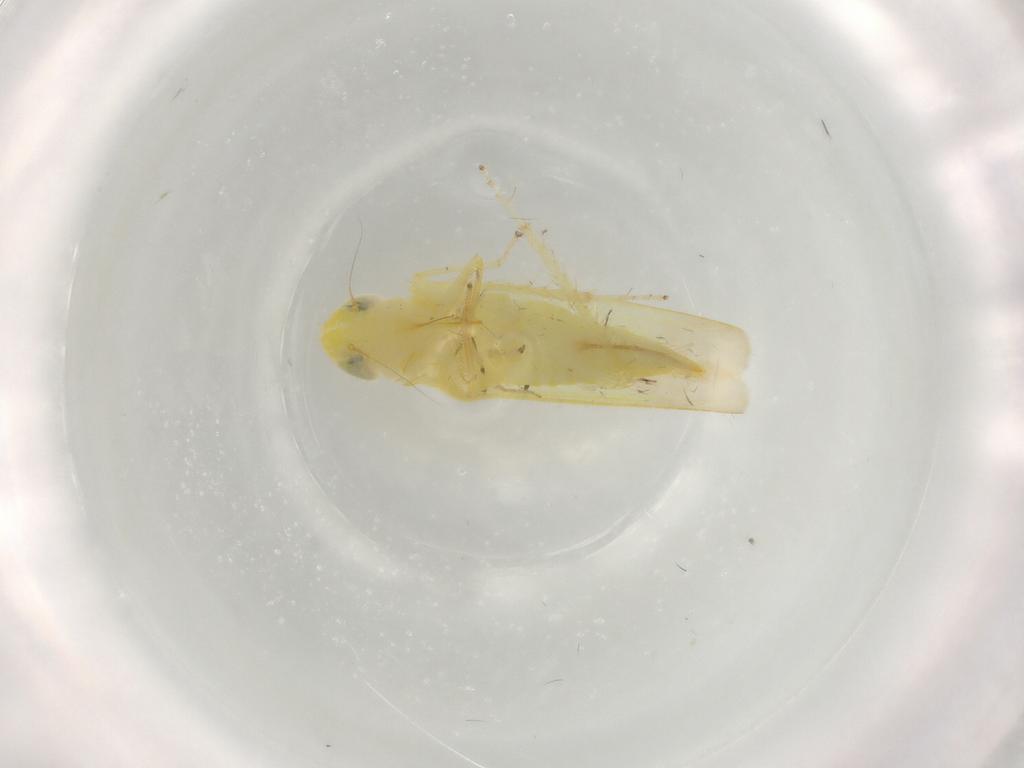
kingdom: Animalia
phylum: Arthropoda
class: Insecta
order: Hemiptera
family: Cicadellidae
